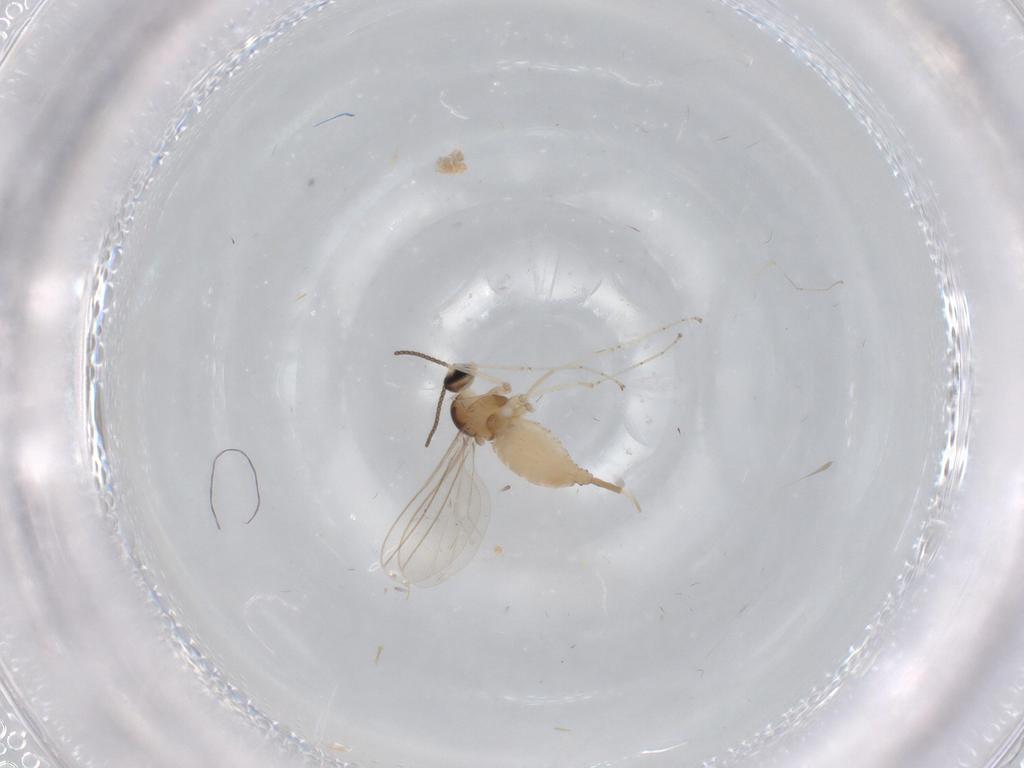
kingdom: Animalia
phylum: Arthropoda
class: Insecta
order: Diptera
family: Cecidomyiidae
